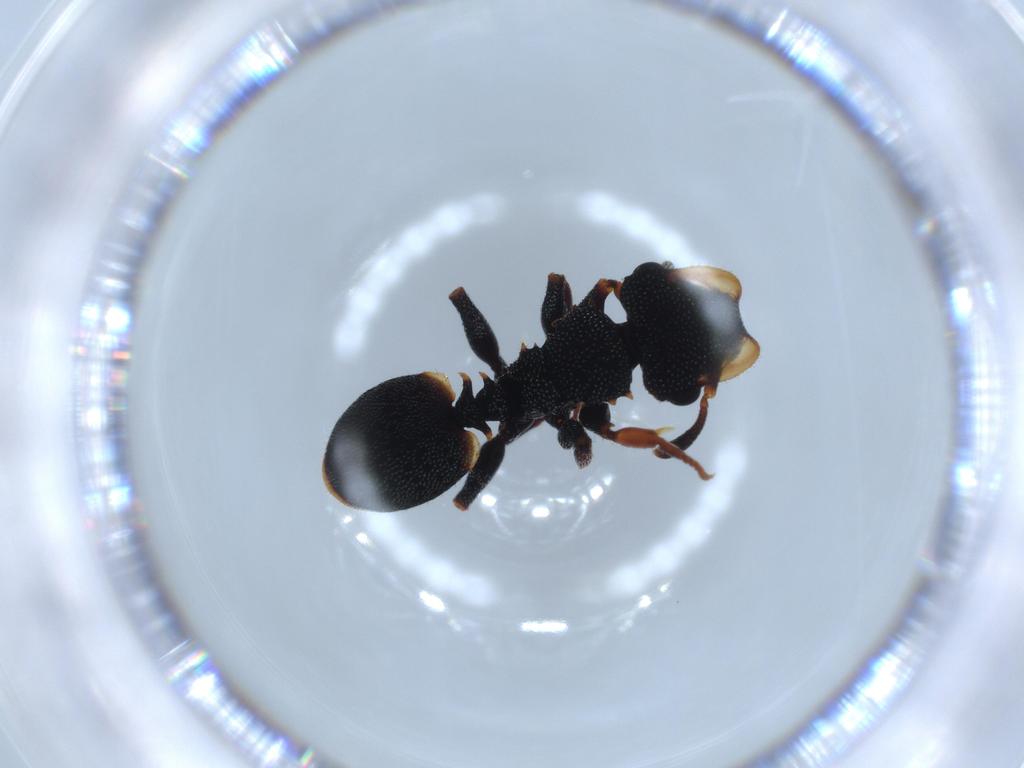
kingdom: Animalia
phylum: Arthropoda
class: Insecta
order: Hymenoptera
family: Formicidae
